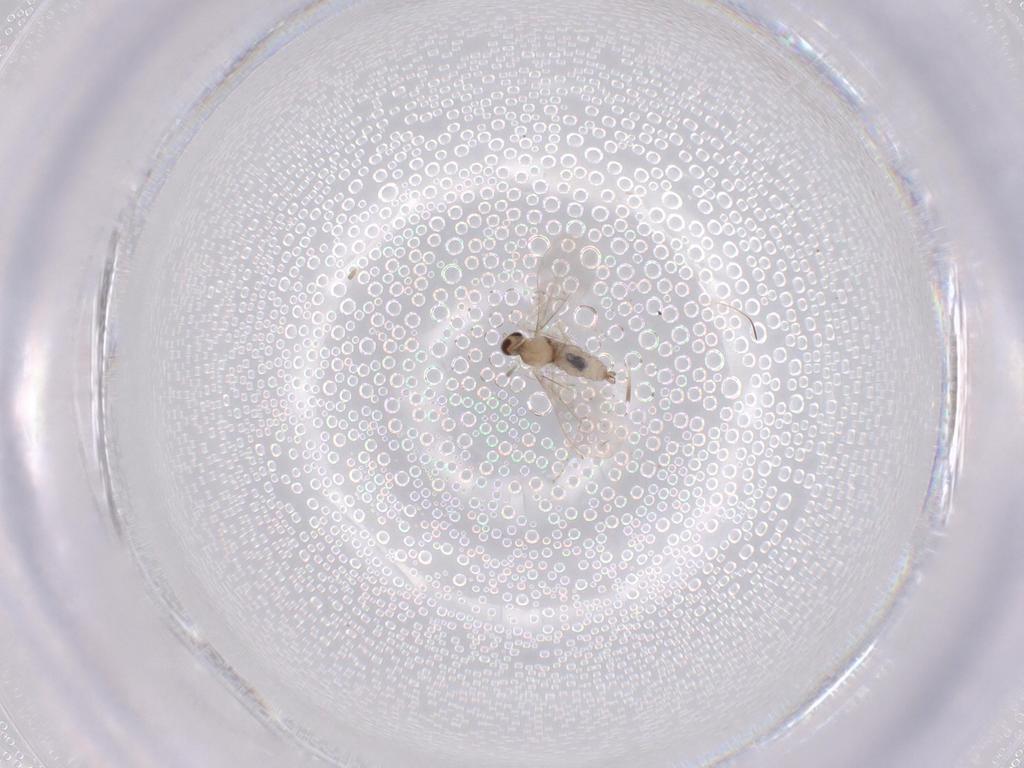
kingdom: Animalia
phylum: Arthropoda
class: Insecta
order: Diptera
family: Cecidomyiidae
